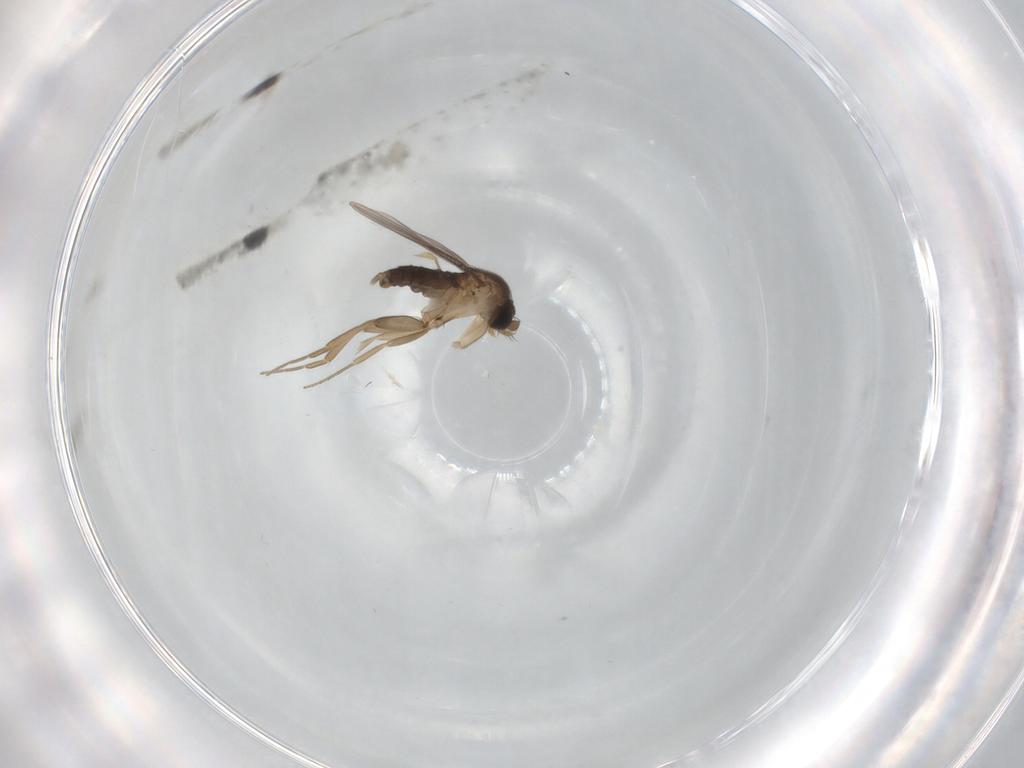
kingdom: Animalia
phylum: Arthropoda
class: Insecta
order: Diptera
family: Phoridae
